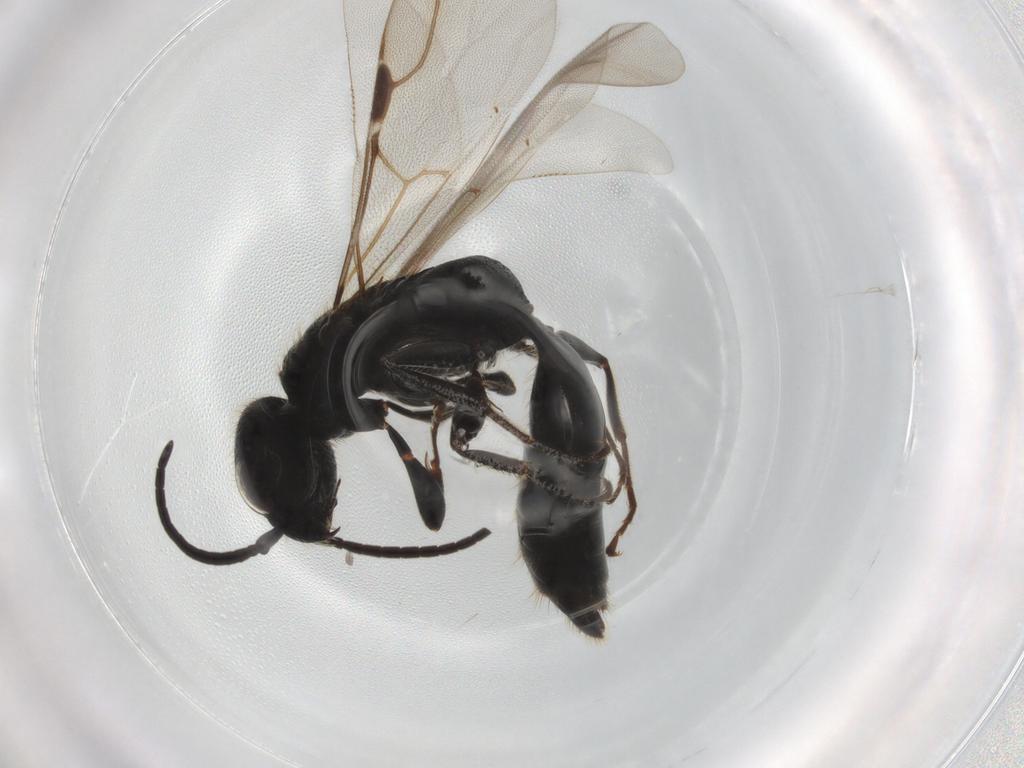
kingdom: Animalia
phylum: Arthropoda
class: Insecta
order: Hymenoptera
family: Bethylidae
